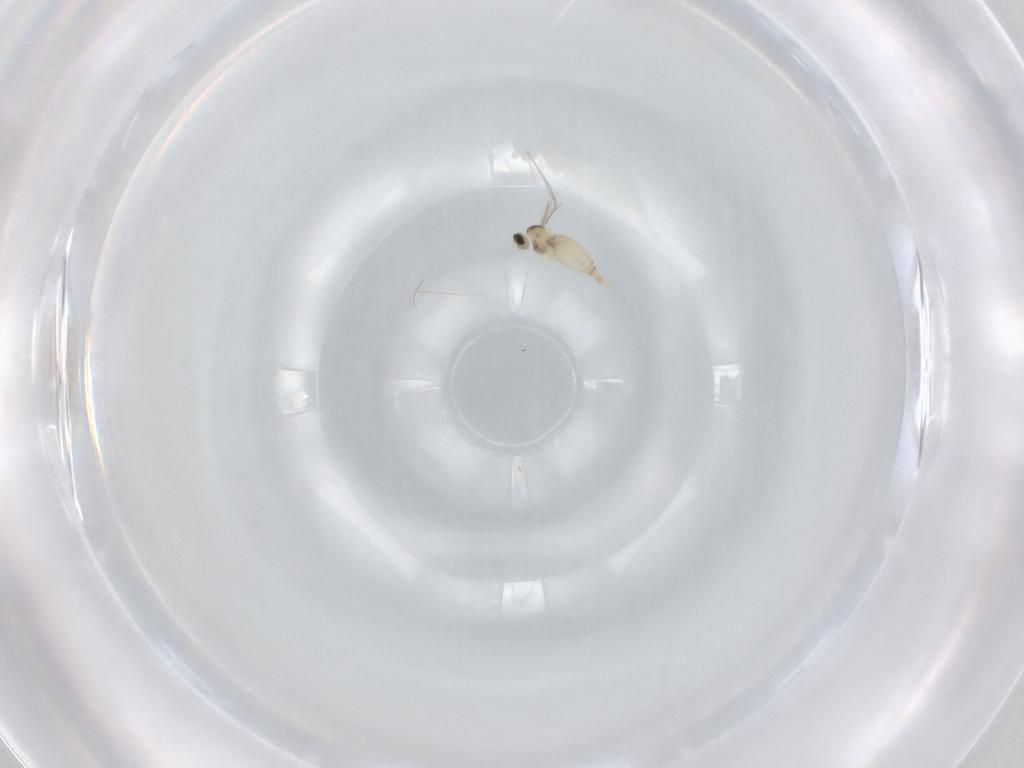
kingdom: Animalia
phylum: Arthropoda
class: Insecta
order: Diptera
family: Cecidomyiidae
